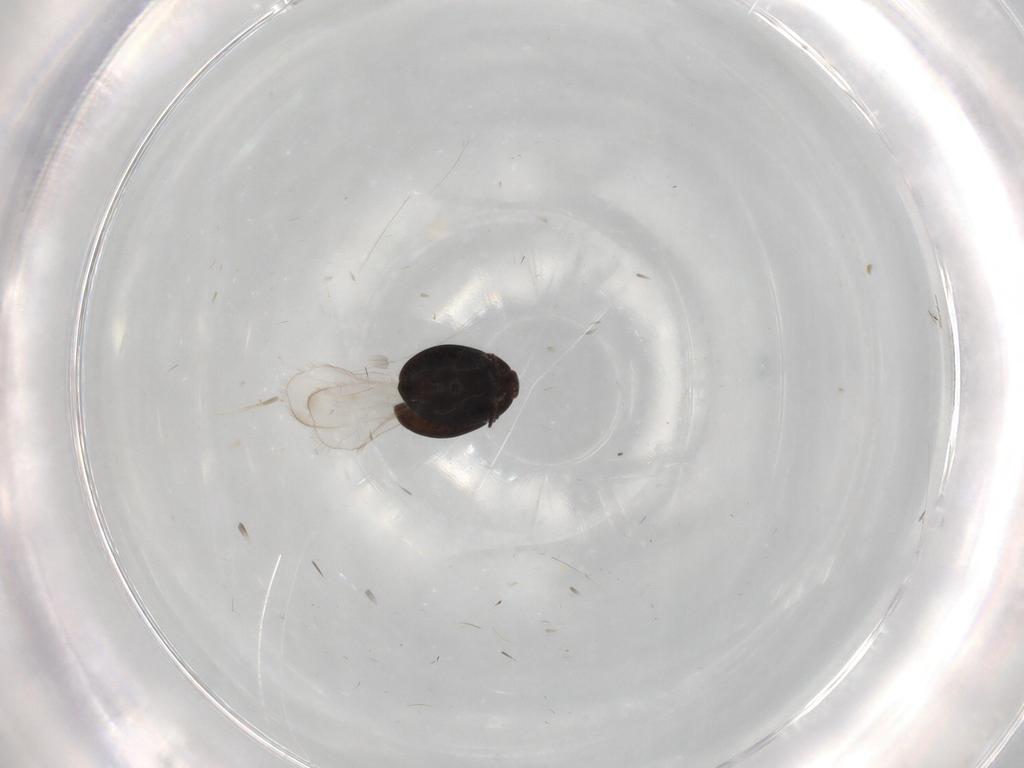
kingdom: Animalia
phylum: Arthropoda
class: Insecta
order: Coleoptera
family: Corylophidae
